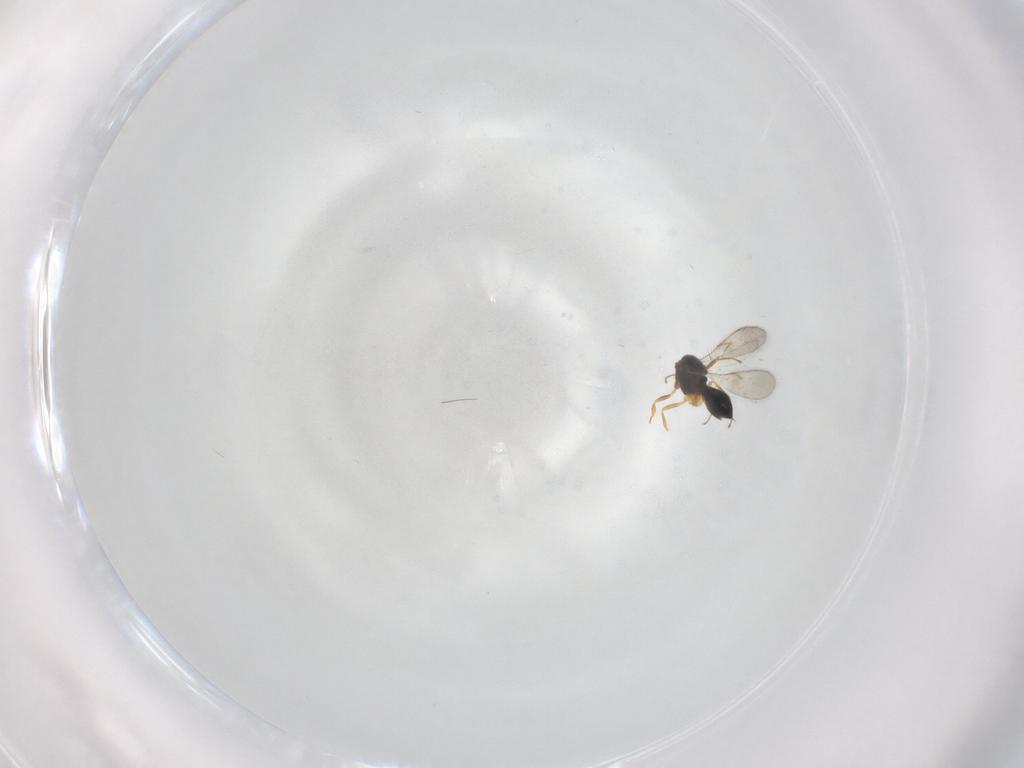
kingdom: Animalia
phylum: Arthropoda
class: Insecta
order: Hymenoptera
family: Scelionidae
